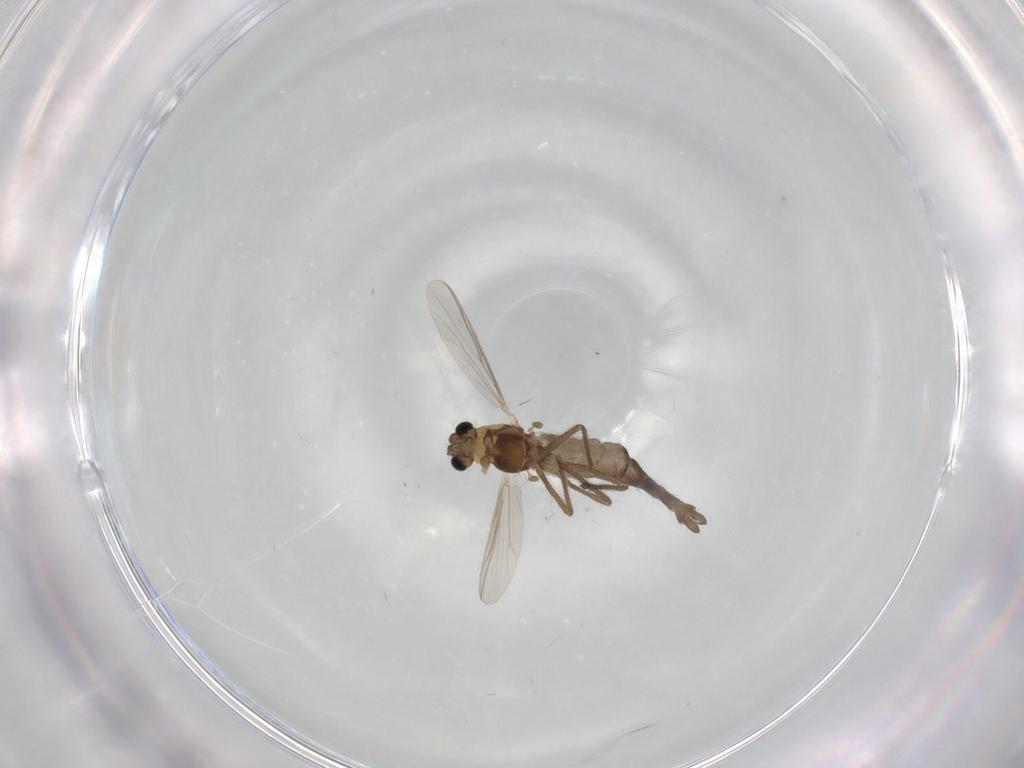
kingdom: Animalia
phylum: Arthropoda
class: Insecta
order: Diptera
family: Chironomidae
